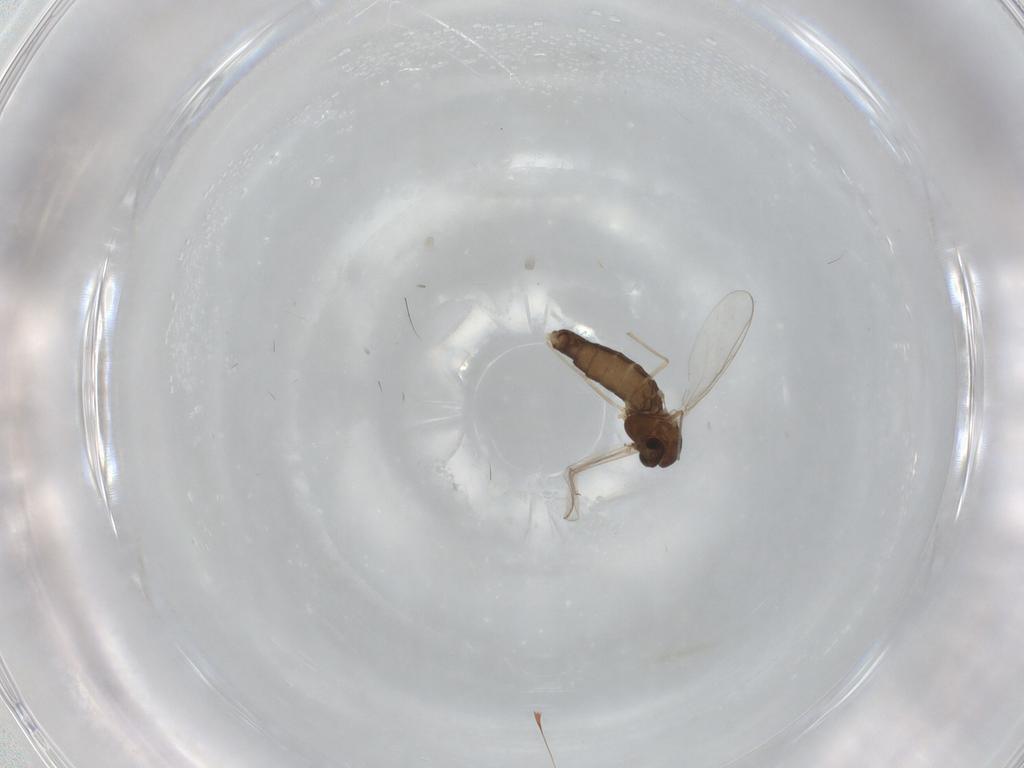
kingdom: Animalia
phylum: Arthropoda
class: Insecta
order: Diptera
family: Chironomidae
